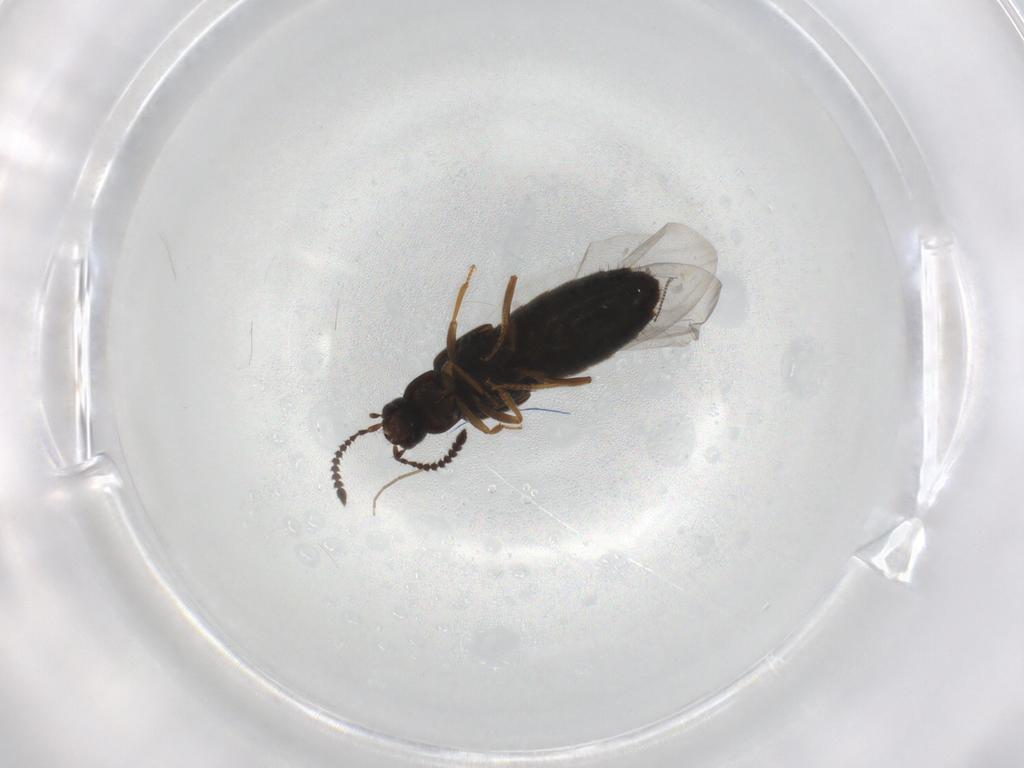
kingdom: Animalia
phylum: Arthropoda
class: Insecta
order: Coleoptera
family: Staphylinidae
